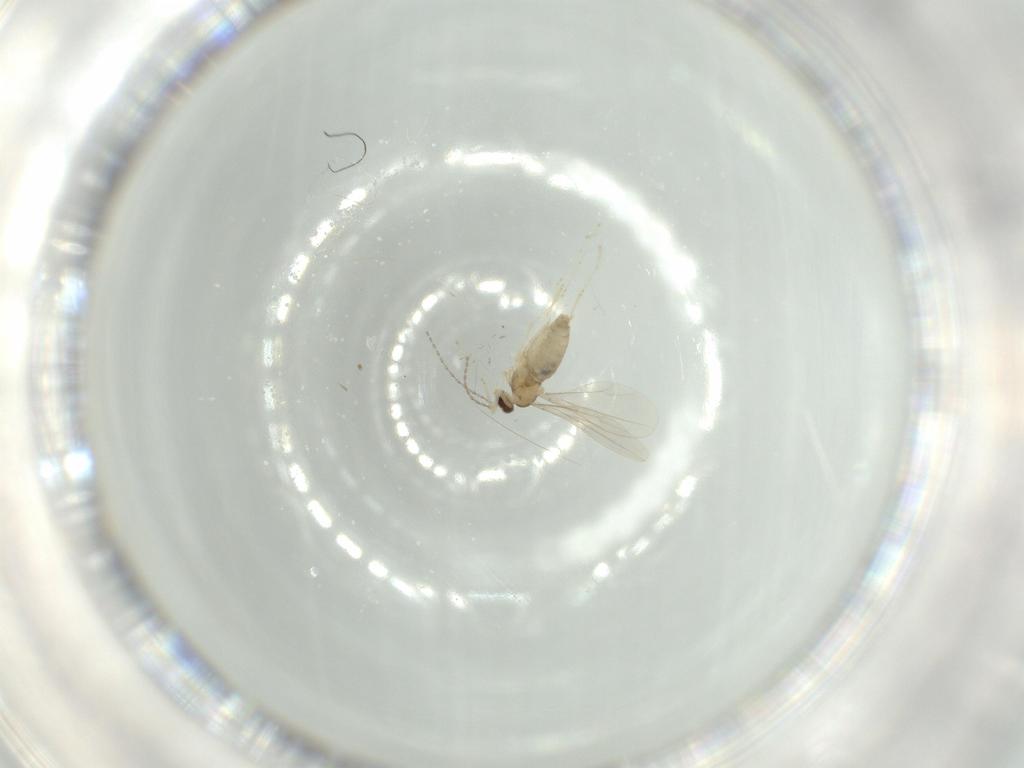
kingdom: Animalia
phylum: Arthropoda
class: Insecta
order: Diptera
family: Cecidomyiidae
